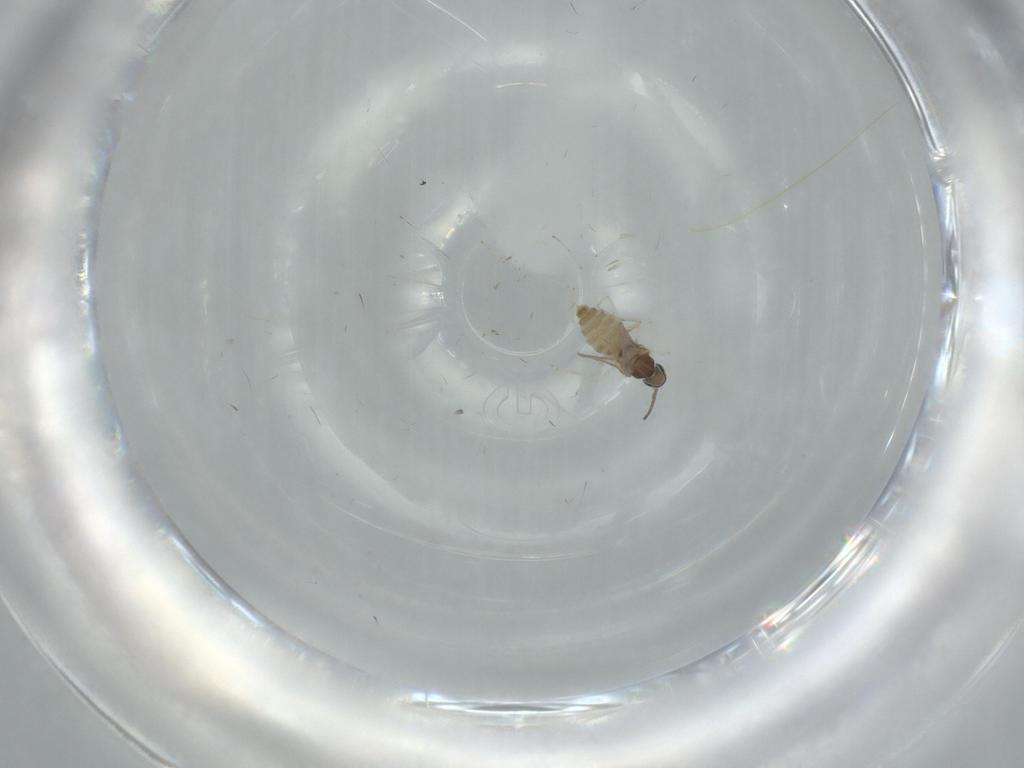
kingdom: Animalia
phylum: Arthropoda
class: Insecta
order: Diptera
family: Cecidomyiidae
